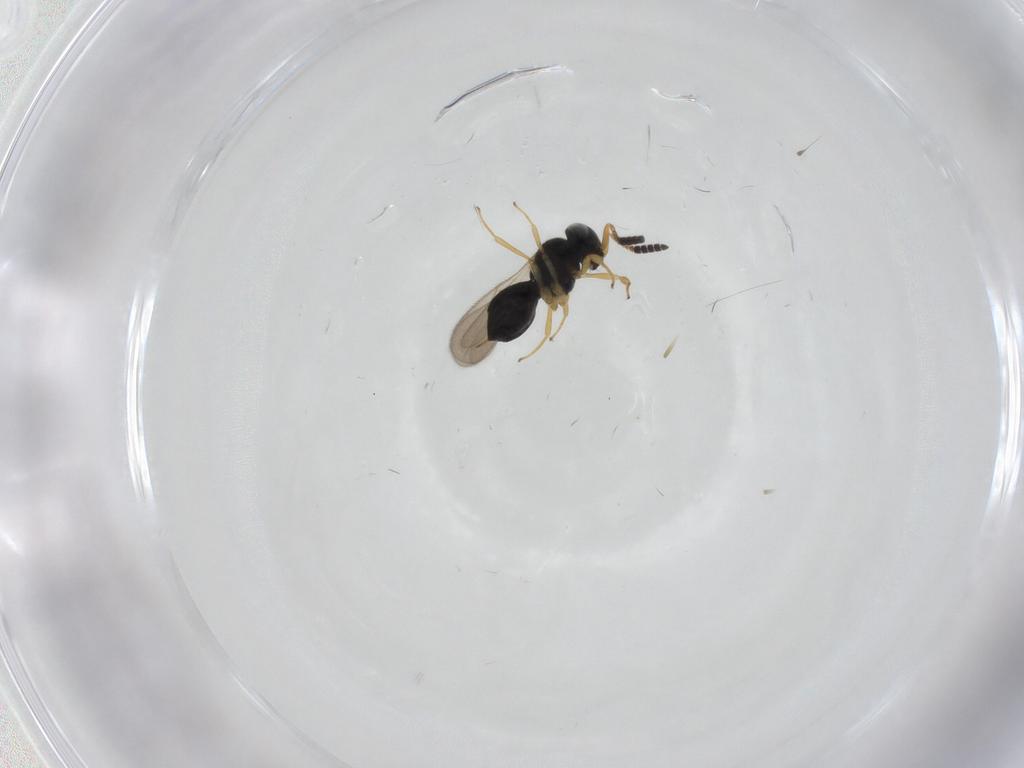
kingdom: Animalia
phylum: Arthropoda
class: Insecta
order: Hymenoptera
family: Scelionidae
